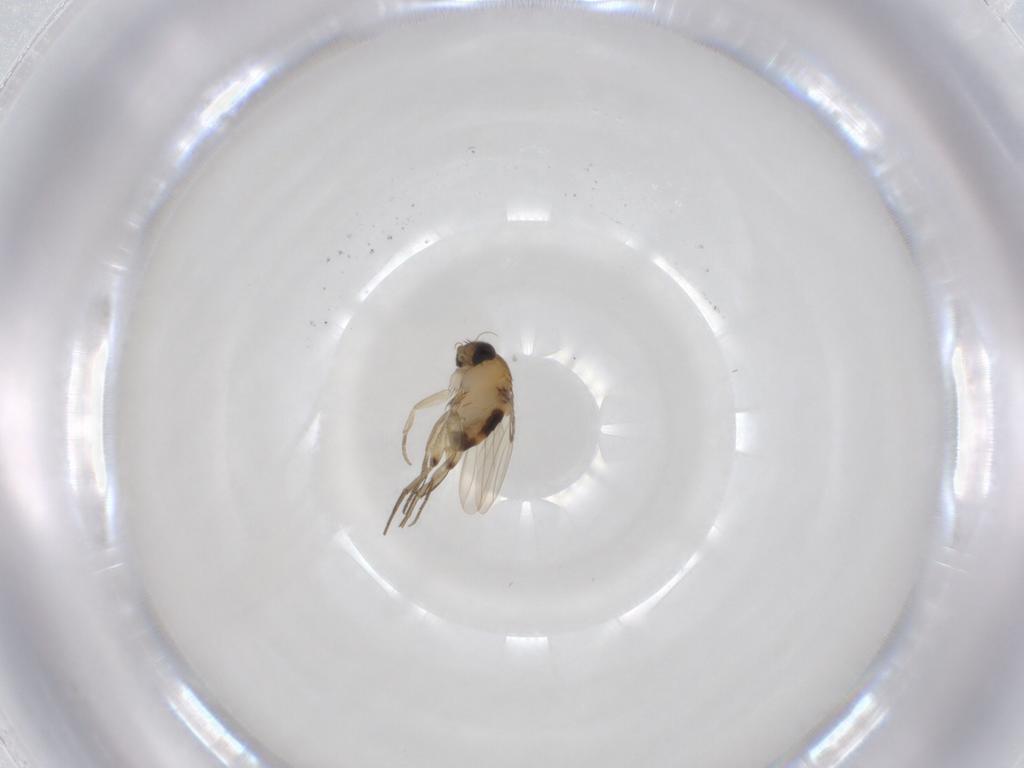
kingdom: Animalia
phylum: Arthropoda
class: Insecta
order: Diptera
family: Phoridae
